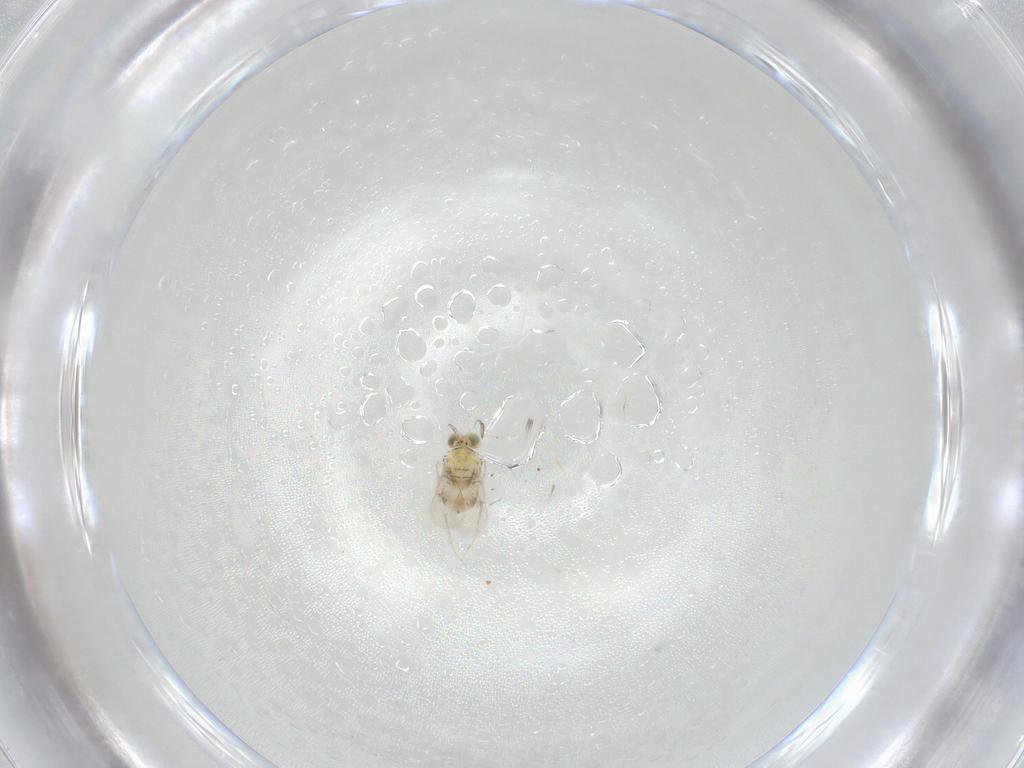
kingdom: Animalia
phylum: Arthropoda
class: Insecta
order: Hymenoptera
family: Aphelinidae
